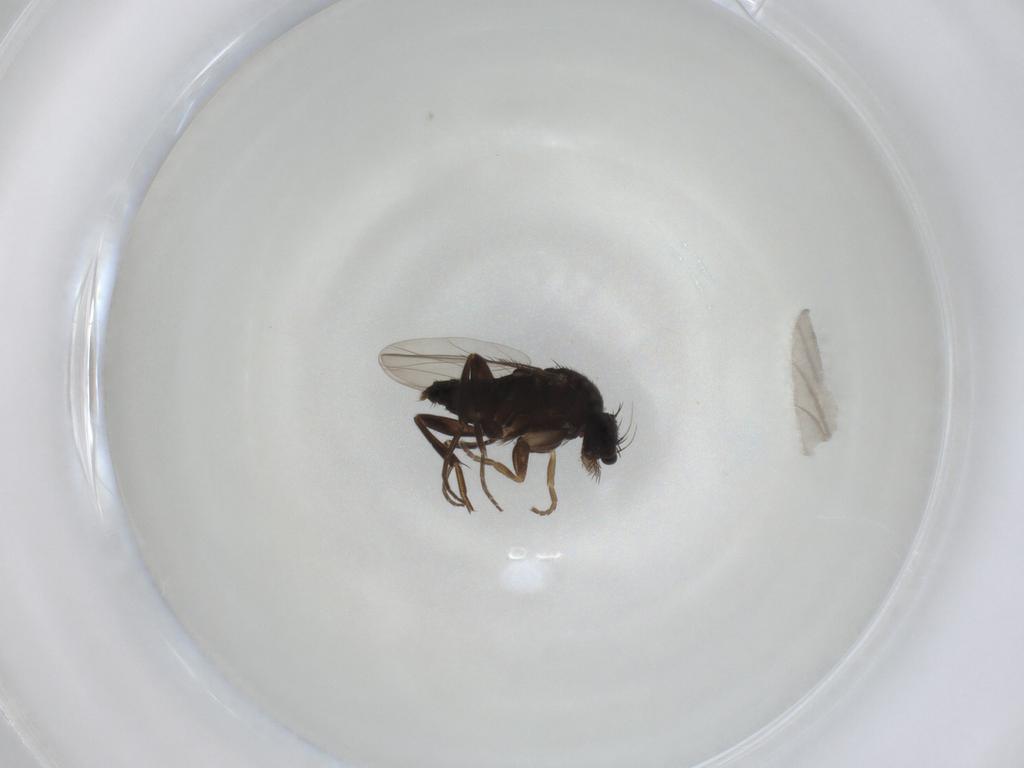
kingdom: Animalia
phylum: Arthropoda
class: Insecta
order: Diptera
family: Phoridae
